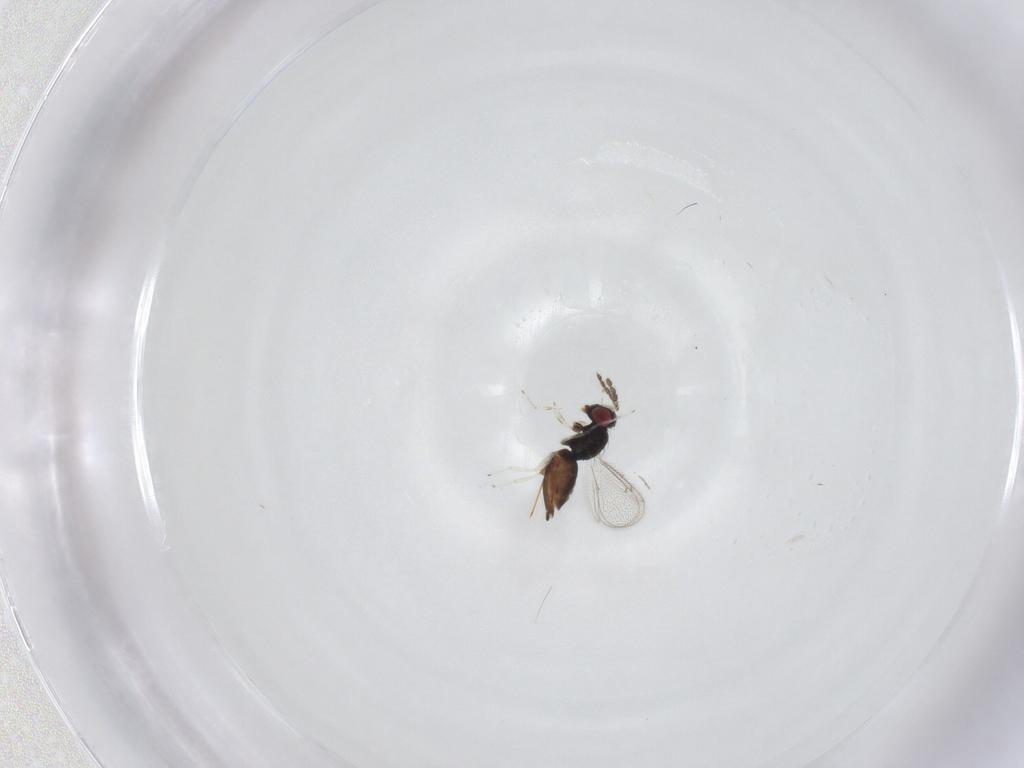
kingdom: Animalia
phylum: Arthropoda
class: Insecta
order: Hymenoptera
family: Eulophidae
